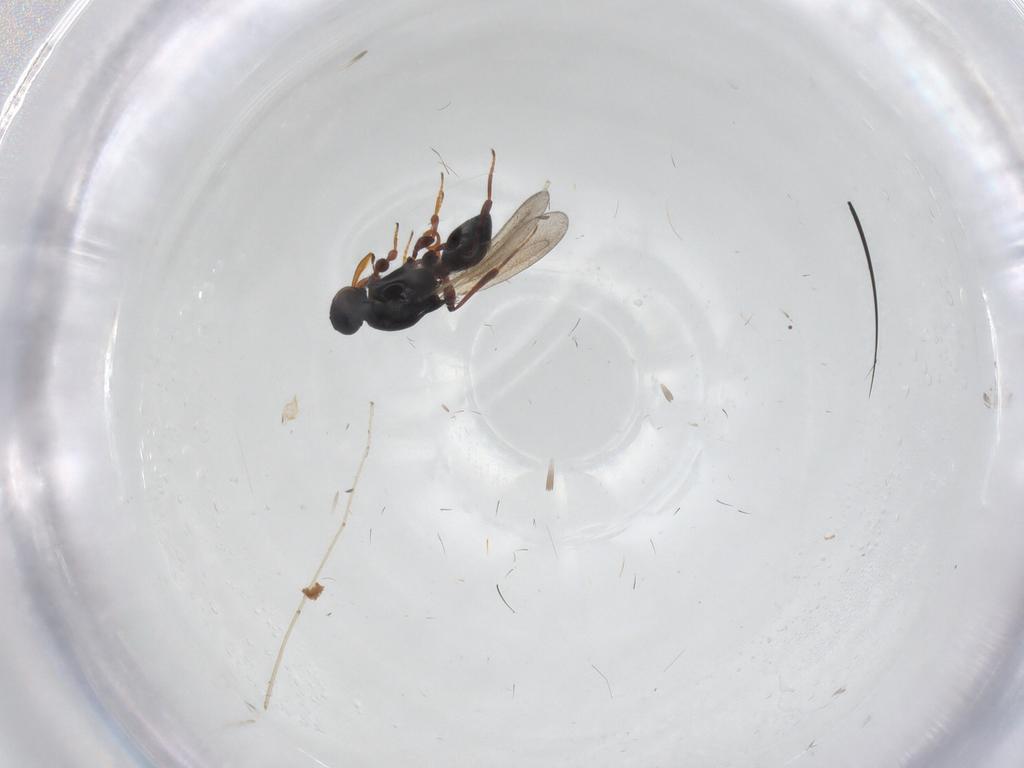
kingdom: Animalia
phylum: Arthropoda
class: Insecta
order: Hymenoptera
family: Platygastridae
